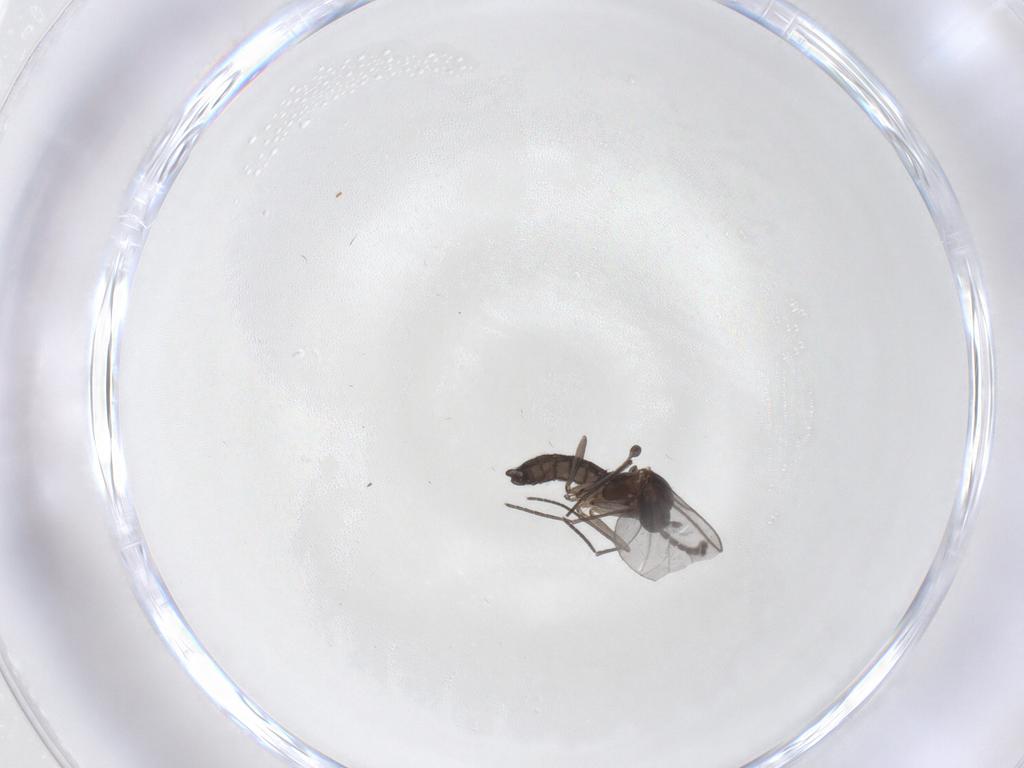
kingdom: Animalia
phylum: Arthropoda
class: Insecta
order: Diptera
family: Sciaridae
